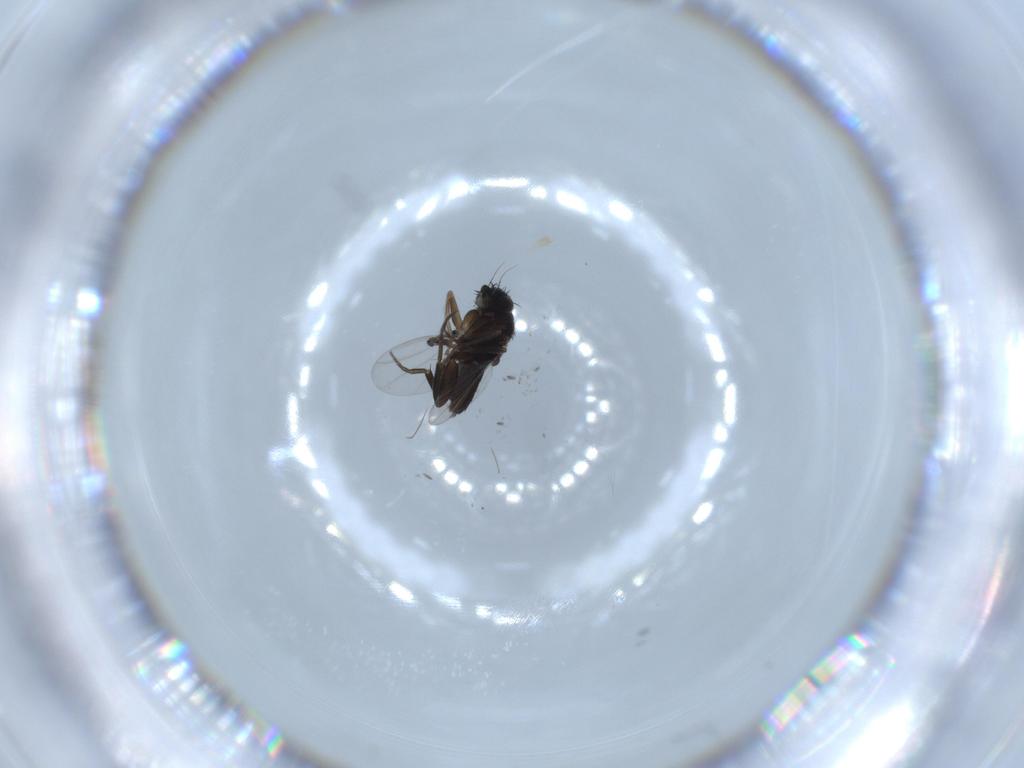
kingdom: Animalia
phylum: Arthropoda
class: Insecta
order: Diptera
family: Phoridae
